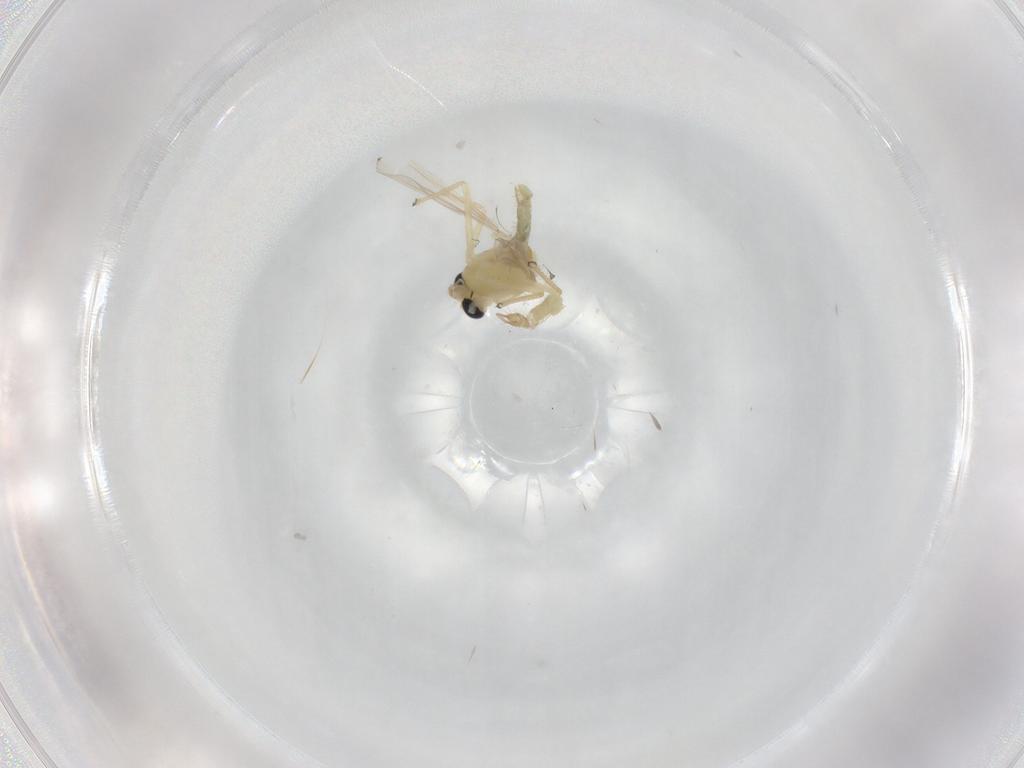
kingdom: Animalia
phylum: Arthropoda
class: Insecta
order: Diptera
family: Chironomidae
